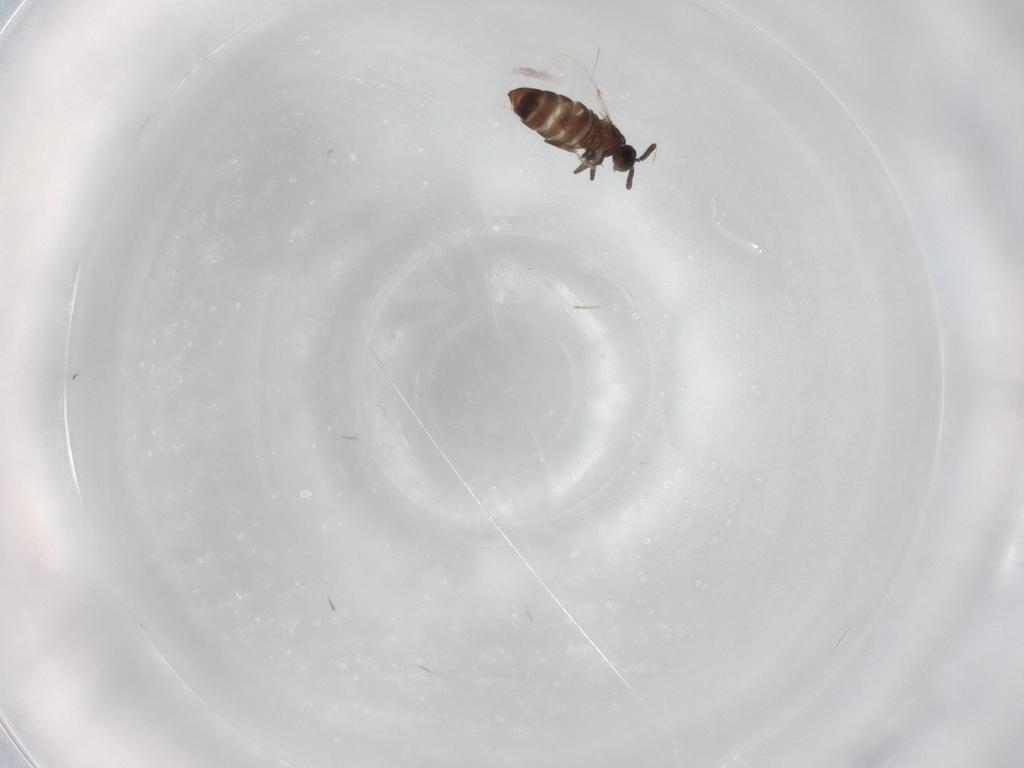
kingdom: Animalia
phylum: Arthropoda
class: Insecta
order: Diptera
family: Scatopsidae
